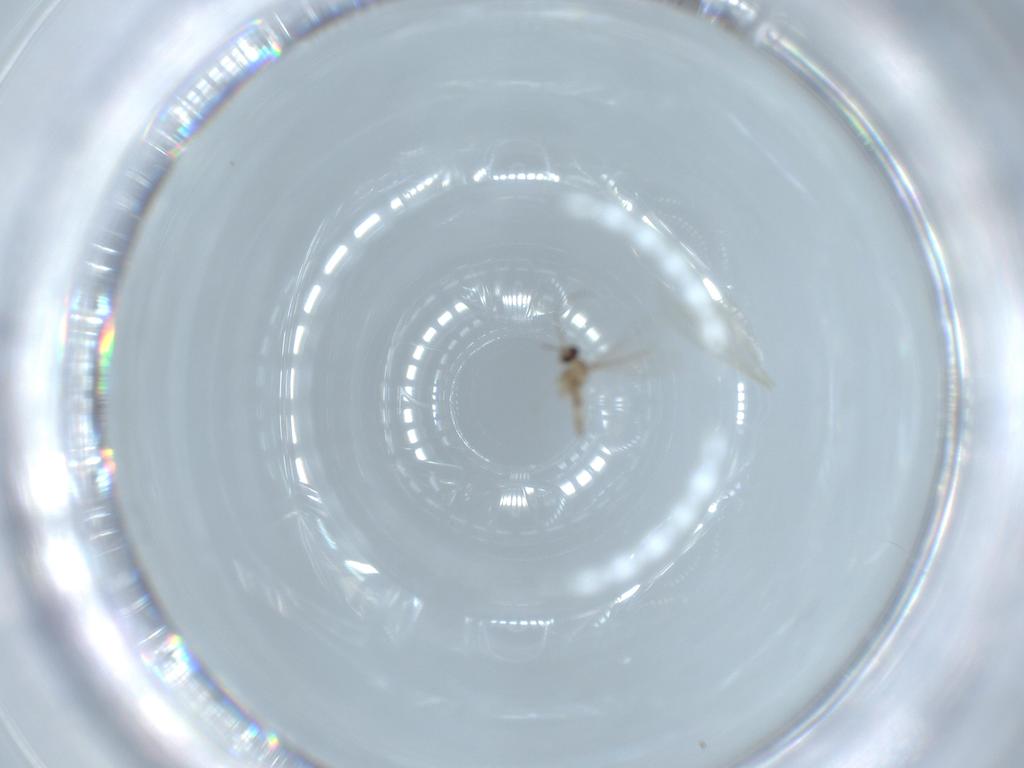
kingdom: Animalia
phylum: Arthropoda
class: Insecta
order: Diptera
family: Cecidomyiidae
